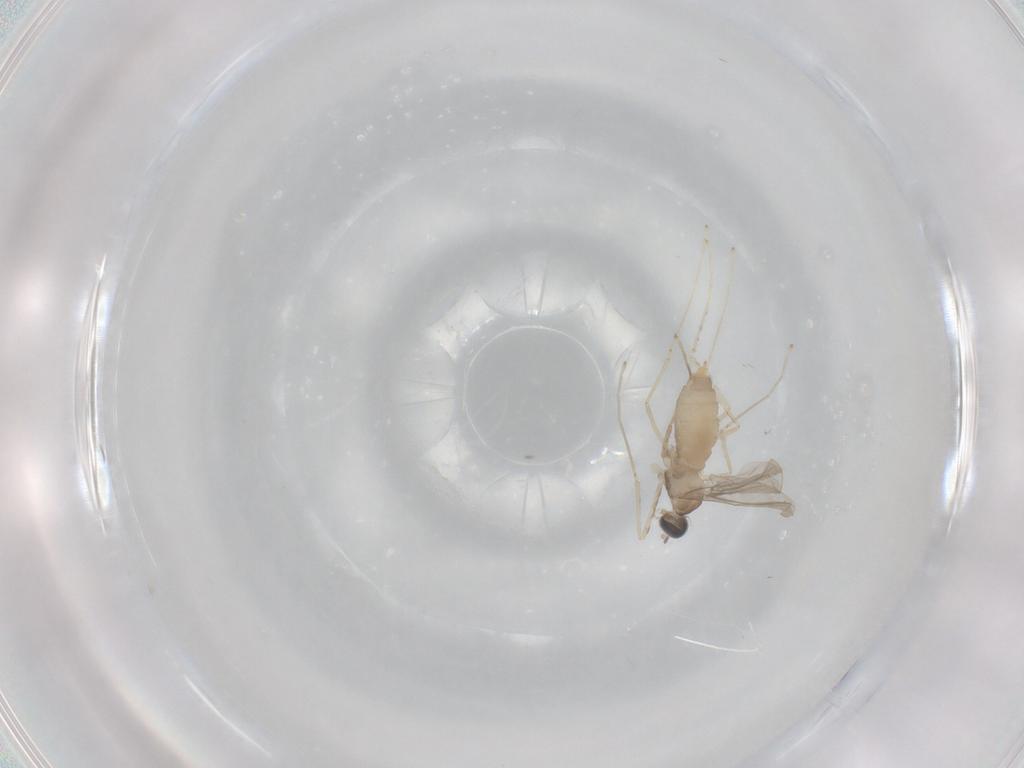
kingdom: Animalia
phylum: Arthropoda
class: Insecta
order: Diptera
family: Cecidomyiidae
